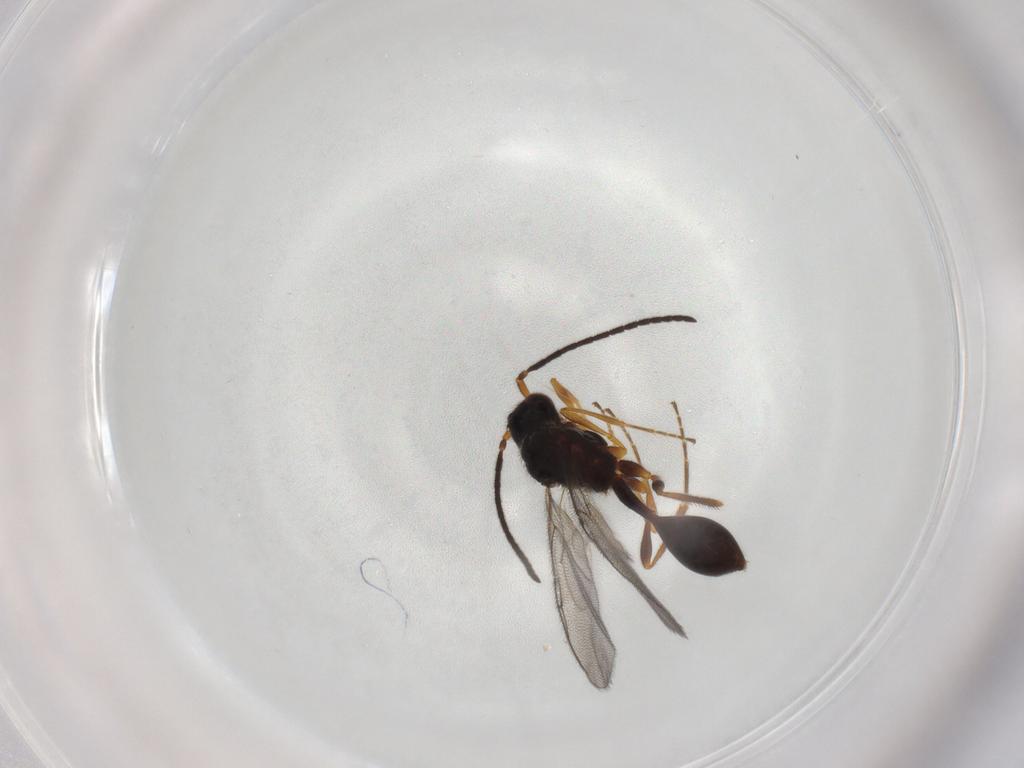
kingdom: Animalia
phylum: Arthropoda
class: Insecta
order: Hymenoptera
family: Diapriidae
